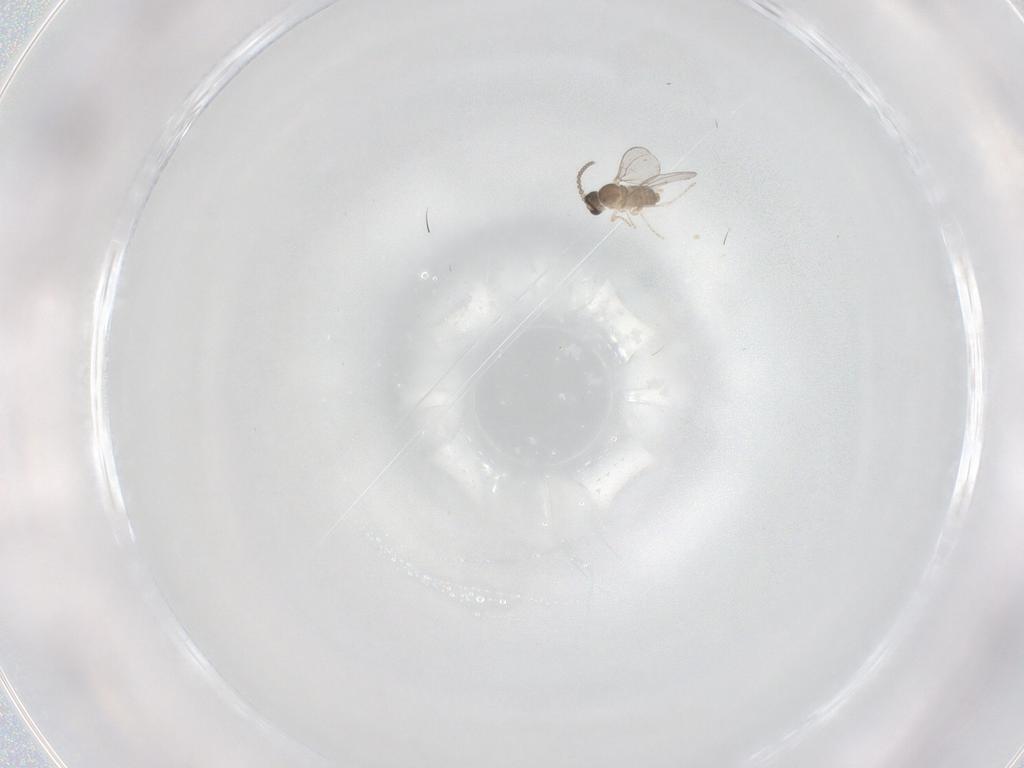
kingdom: Animalia
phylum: Arthropoda
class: Insecta
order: Diptera
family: Cecidomyiidae
